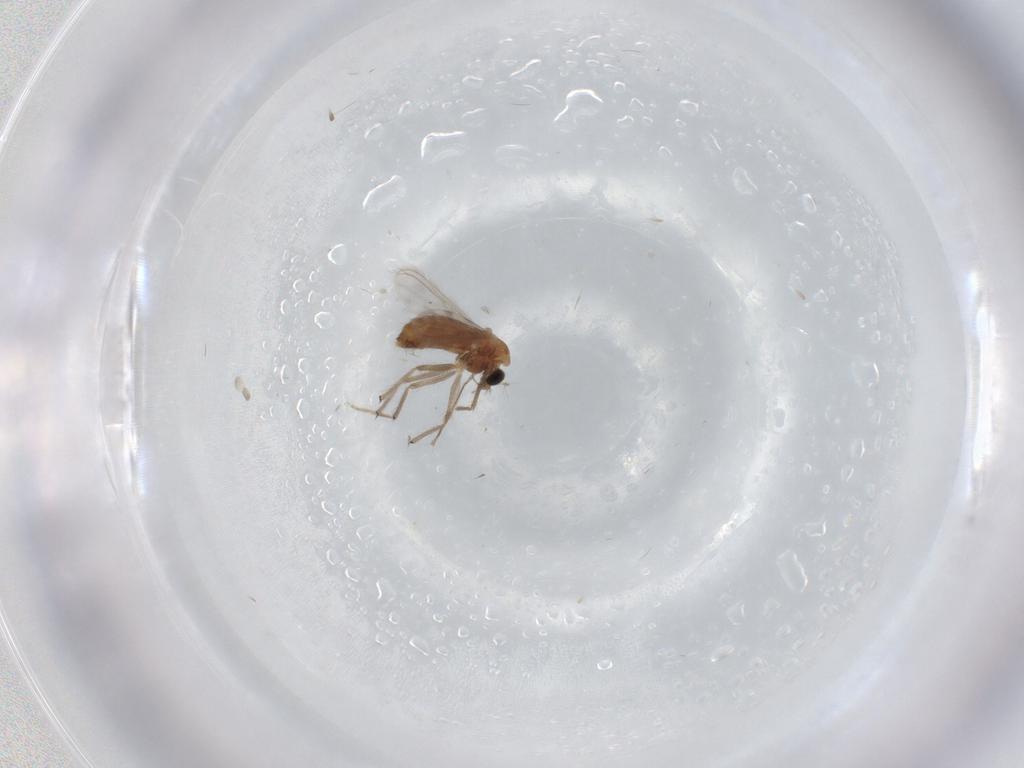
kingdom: Animalia
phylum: Arthropoda
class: Insecta
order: Diptera
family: Chironomidae
